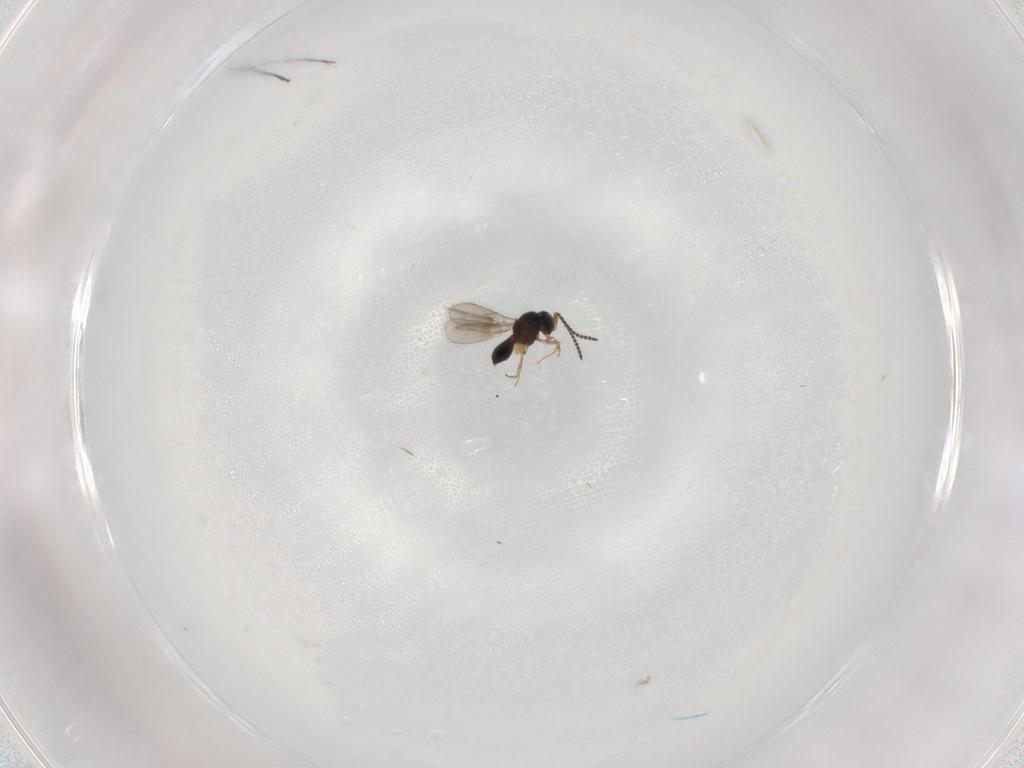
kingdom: Animalia
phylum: Arthropoda
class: Insecta
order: Hymenoptera
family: Scelionidae
